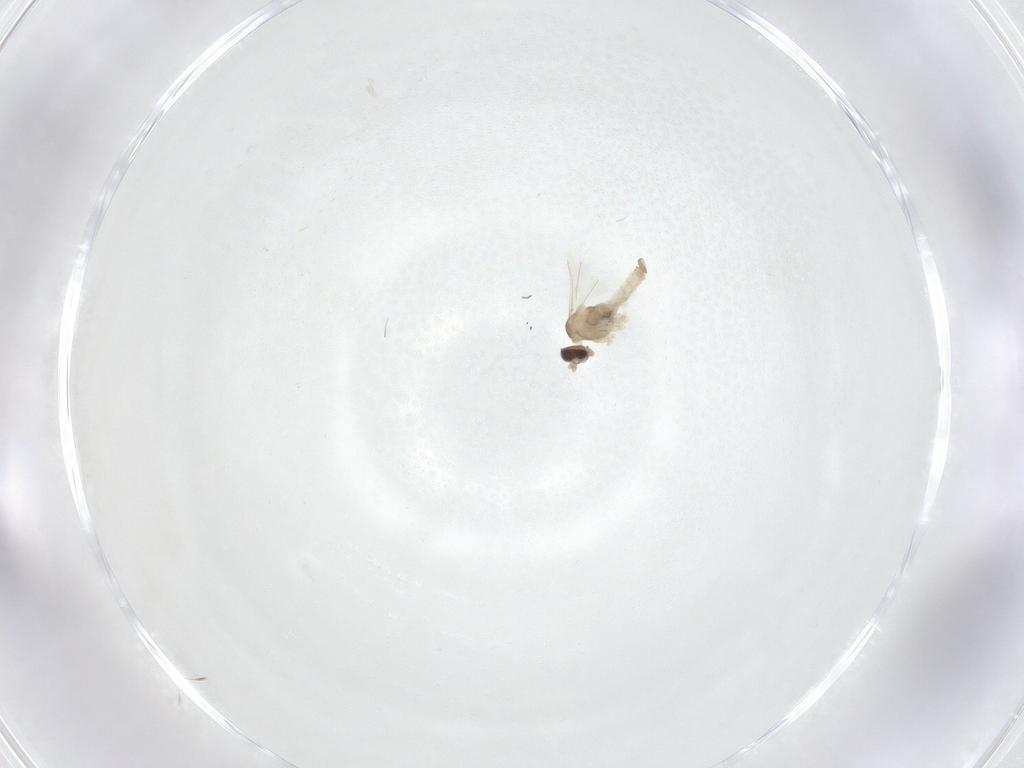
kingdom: Animalia
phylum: Arthropoda
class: Insecta
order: Diptera
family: Cecidomyiidae
